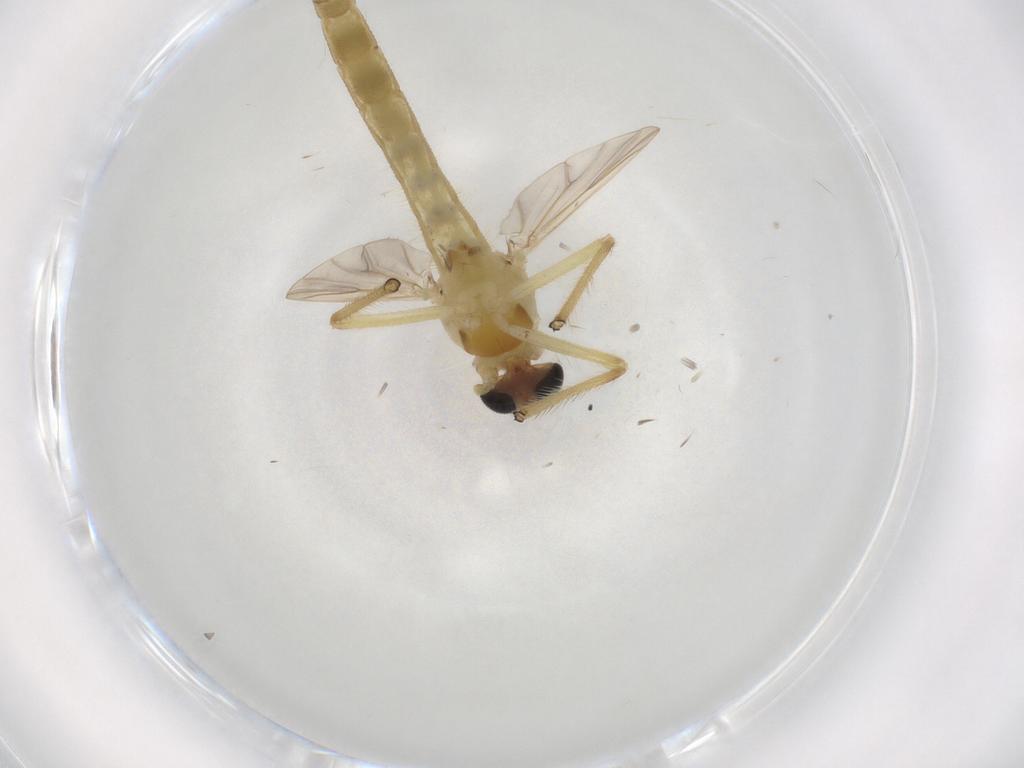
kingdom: Animalia
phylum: Arthropoda
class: Insecta
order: Diptera
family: Chironomidae
